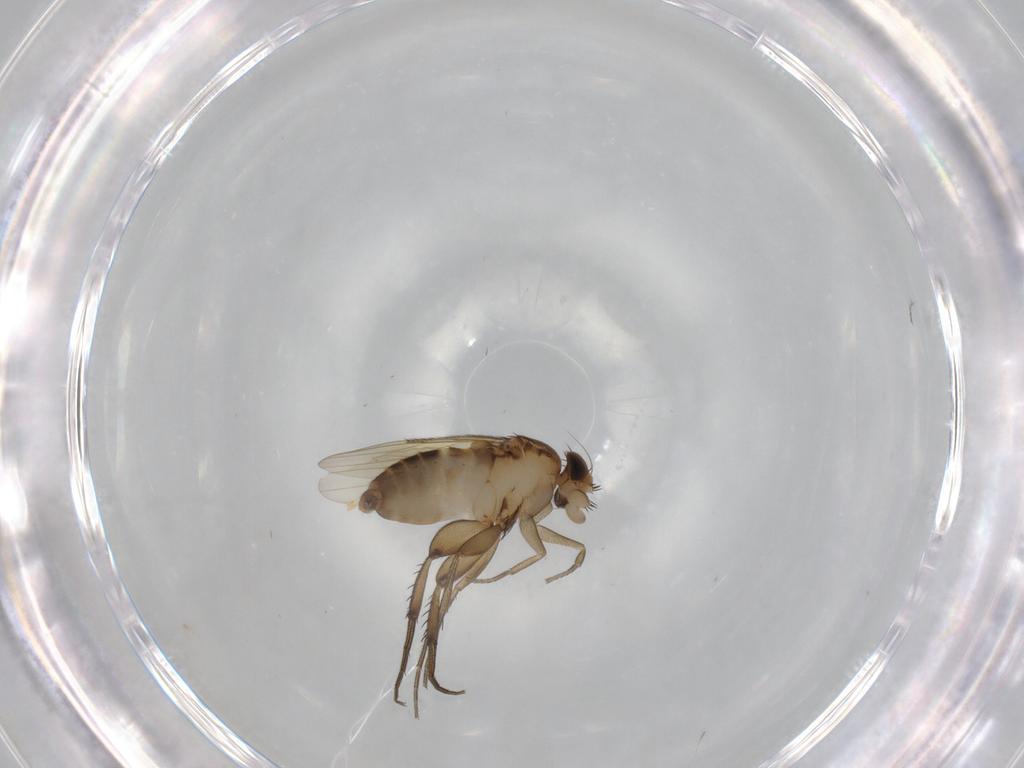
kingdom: Animalia
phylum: Arthropoda
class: Insecta
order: Diptera
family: Phoridae
